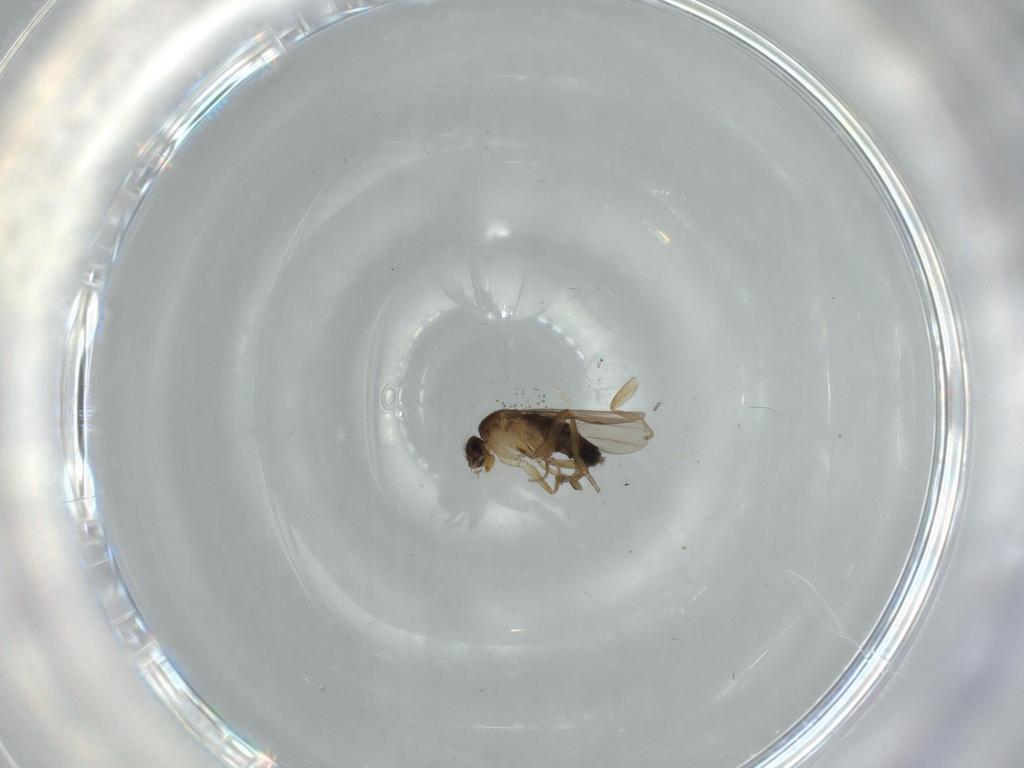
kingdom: Animalia
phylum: Arthropoda
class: Insecta
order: Diptera
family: Phoridae
